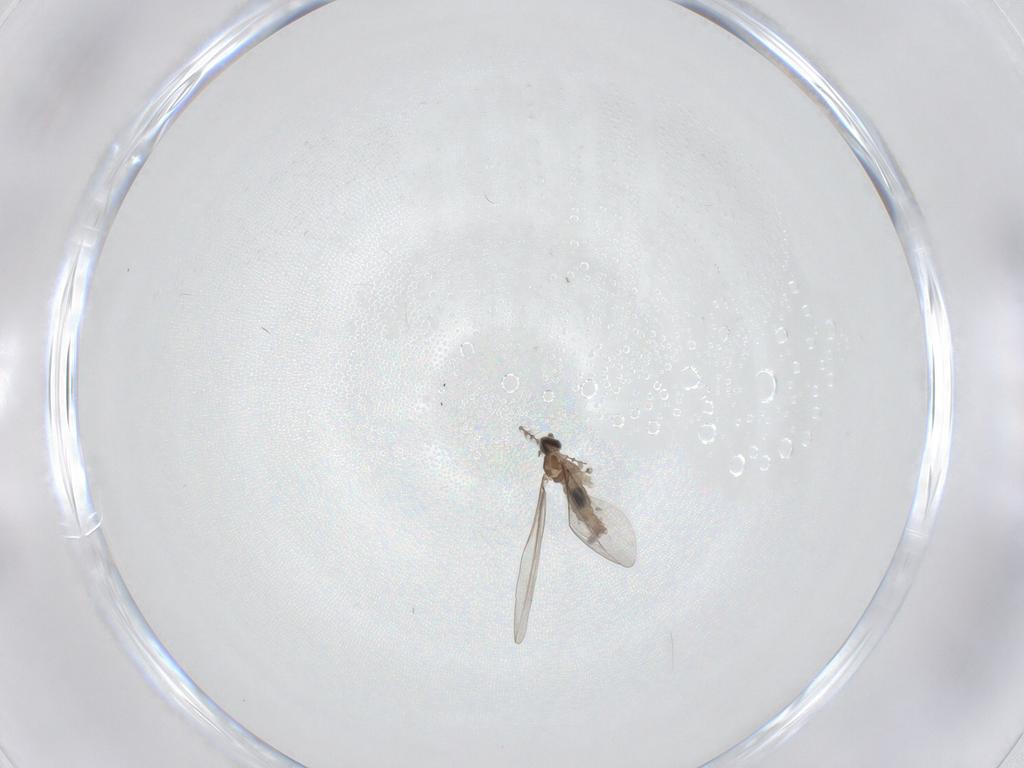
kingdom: Animalia
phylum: Arthropoda
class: Insecta
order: Diptera
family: Cecidomyiidae
